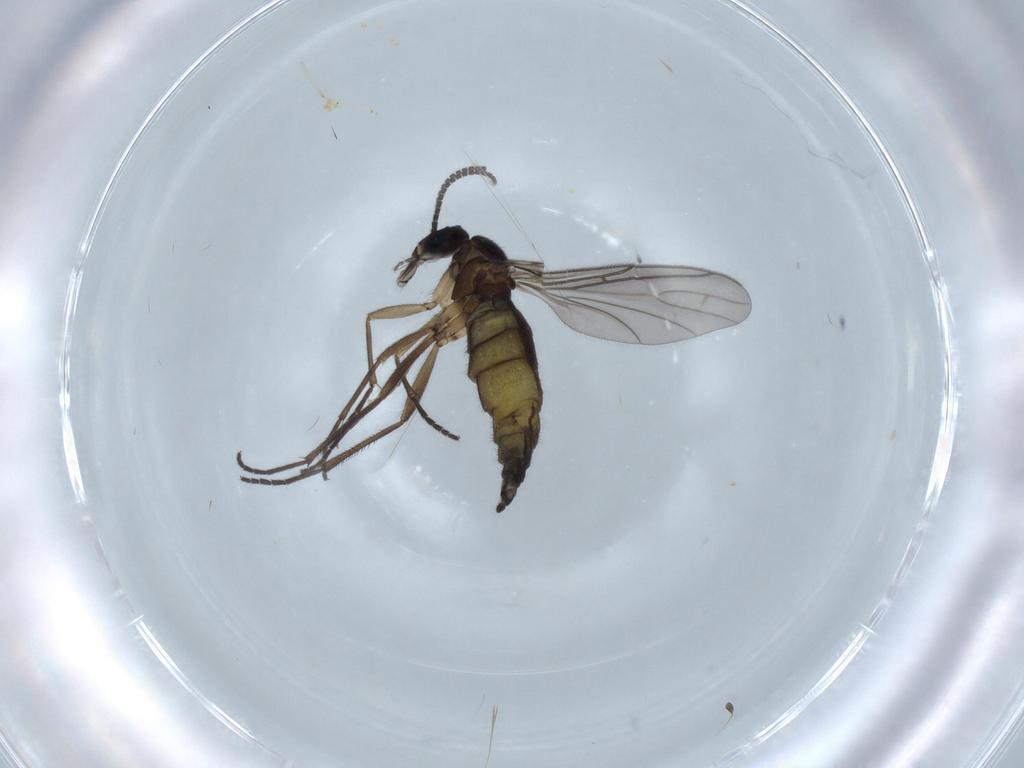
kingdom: Animalia
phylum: Arthropoda
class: Insecta
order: Diptera
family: Sciaridae
